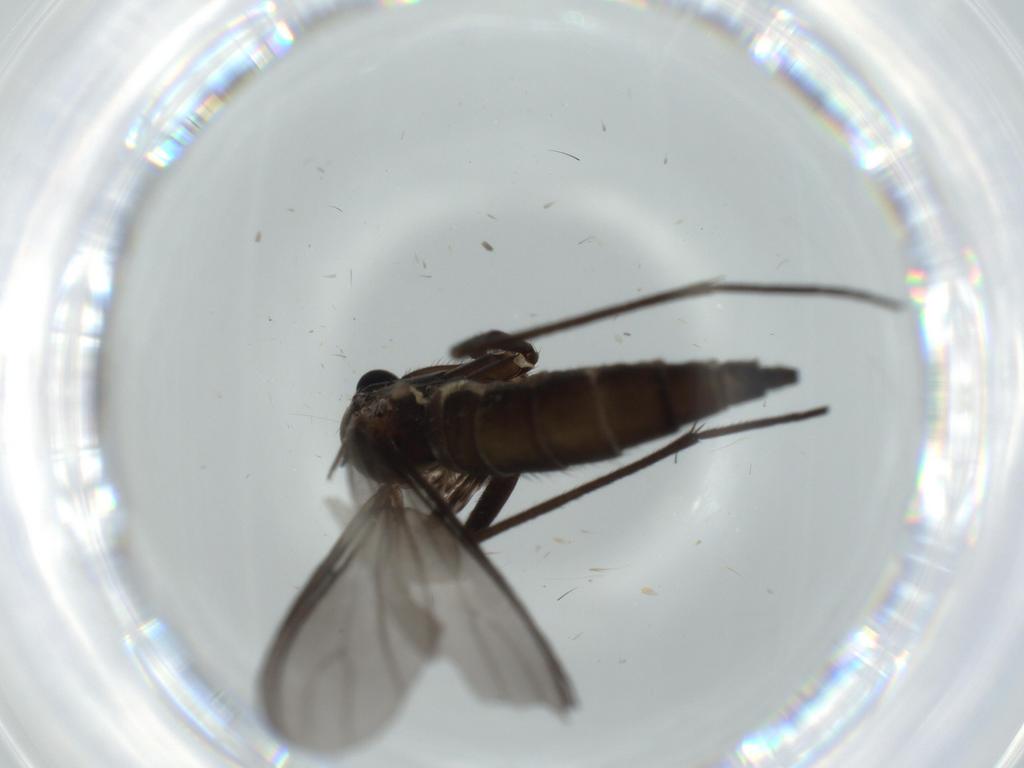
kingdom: Animalia
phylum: Arthropoda
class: Insecta
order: Diptera
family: Sciaridae
